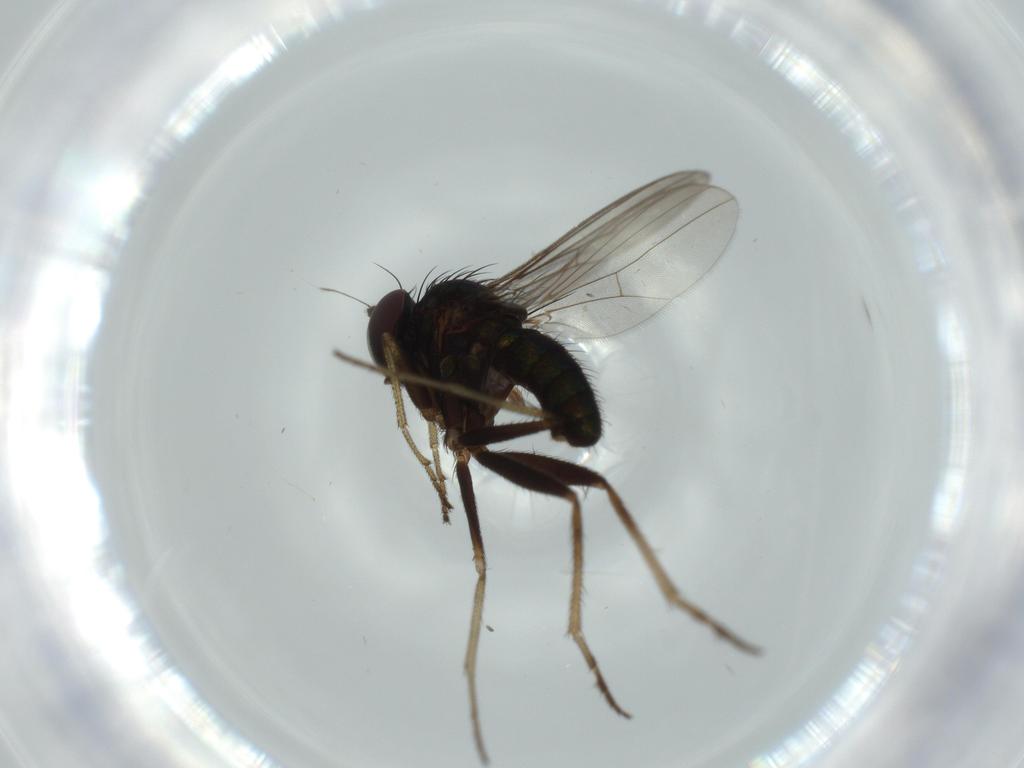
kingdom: Animalia
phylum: Arthropoda
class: Insecta
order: Diptera
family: Dolichopodidae
